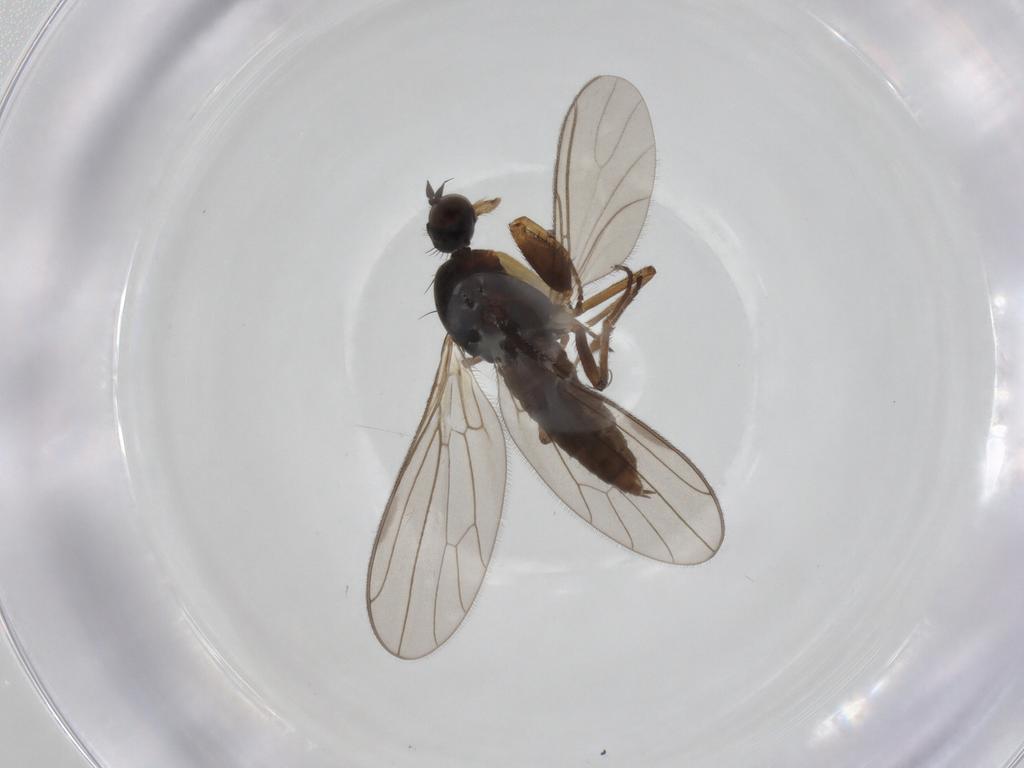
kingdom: Animalia
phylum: Arthropoda
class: Insecta
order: Diptera
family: Empididae
